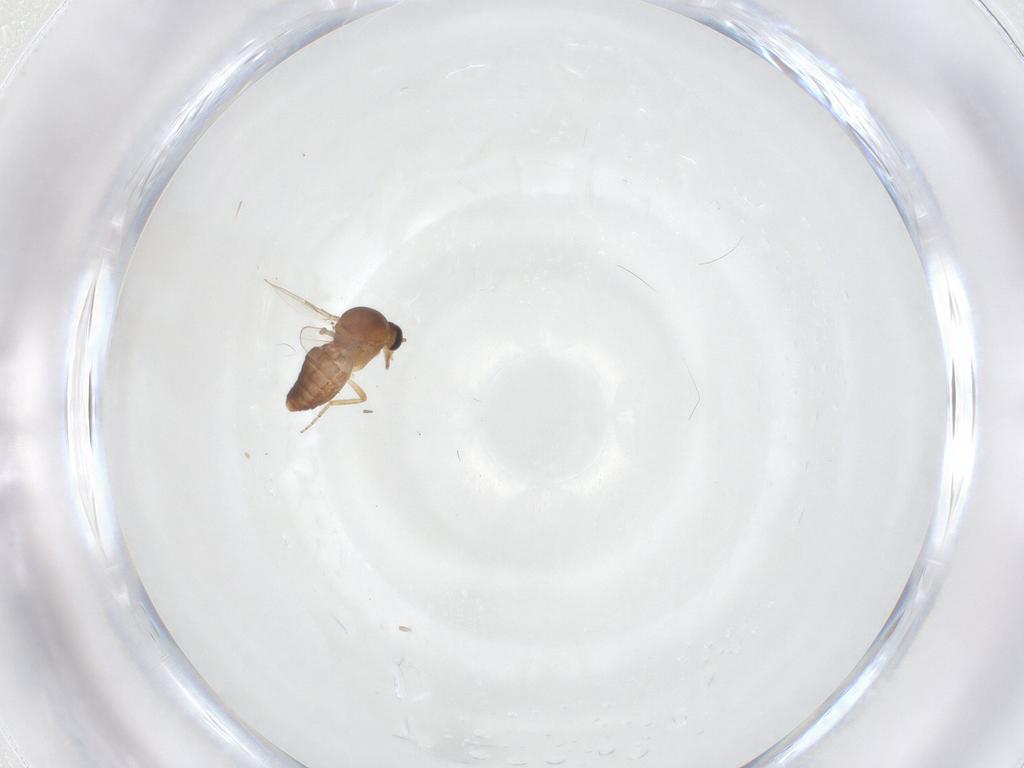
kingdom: Animalia
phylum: Arthropoda
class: Insecta
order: Diptera
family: Ceratopogonidae
